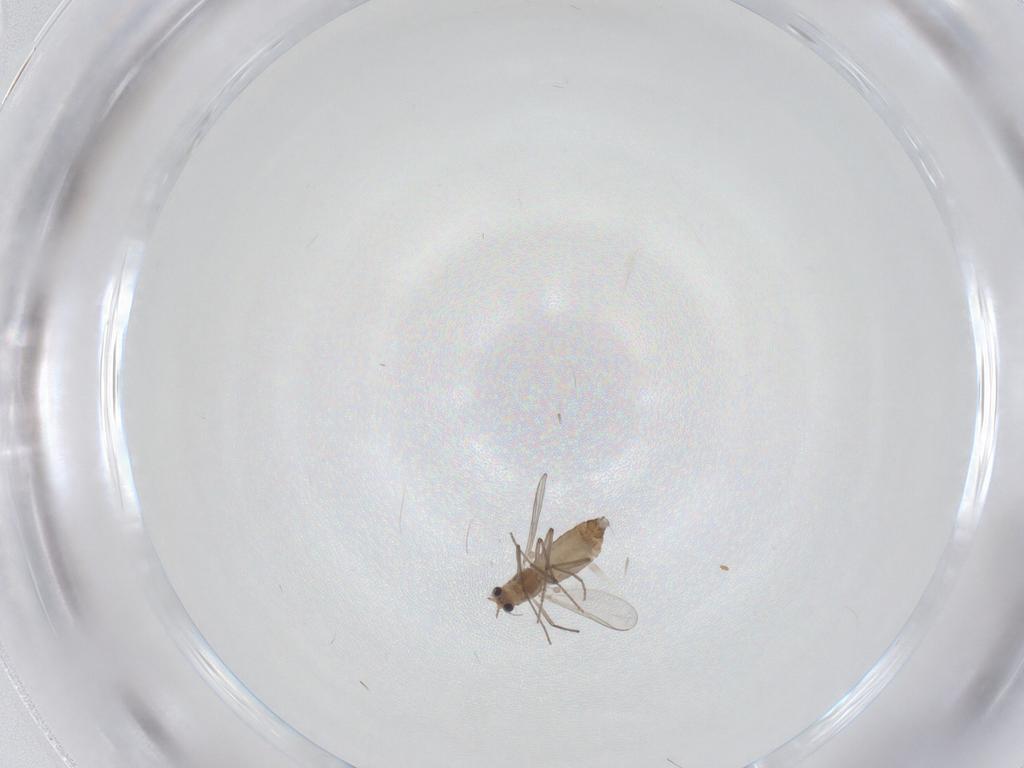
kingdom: Animalia
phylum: Arthropoda
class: Insecta
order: Diptera
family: Chironomidae
